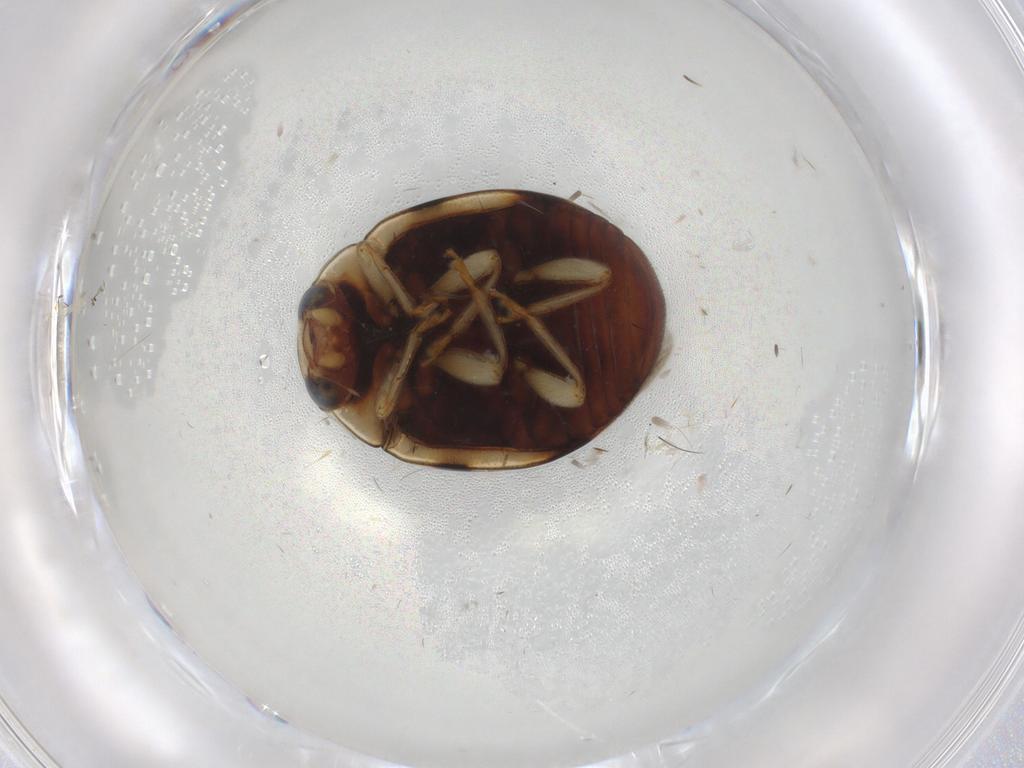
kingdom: Animalia
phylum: Arthropoda
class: Insecta
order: Coleoptera
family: Coccinellidae
